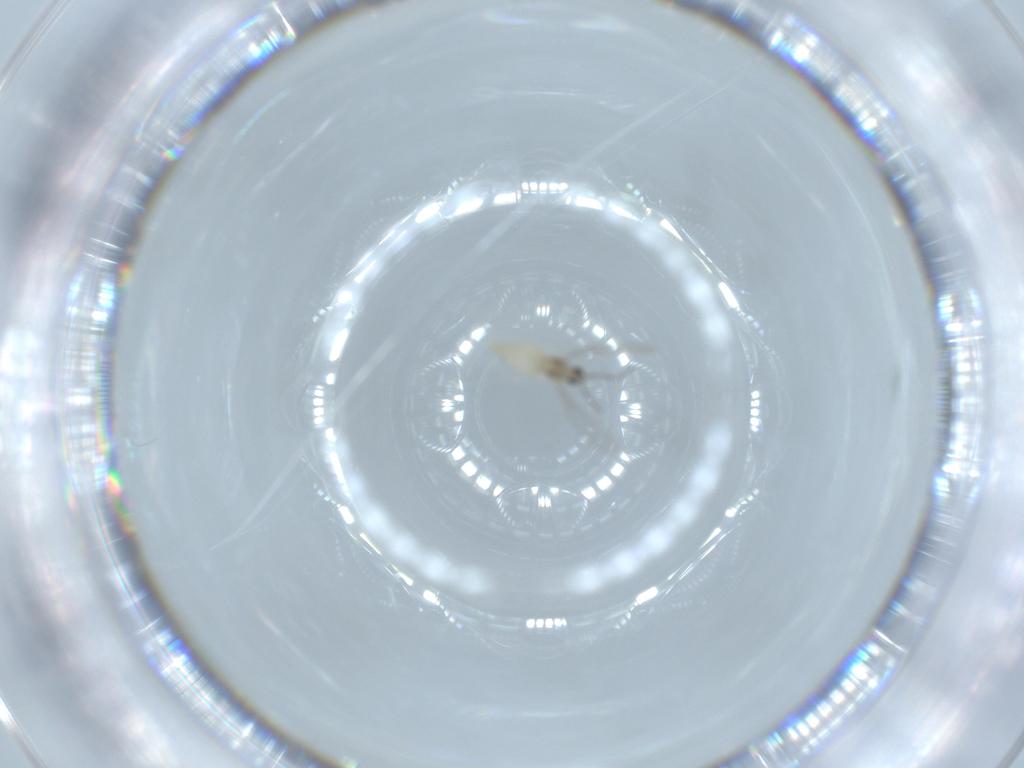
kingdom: Animalia
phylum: Arthropoda
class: Insecta
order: Diptera
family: Cecidomyiidae
